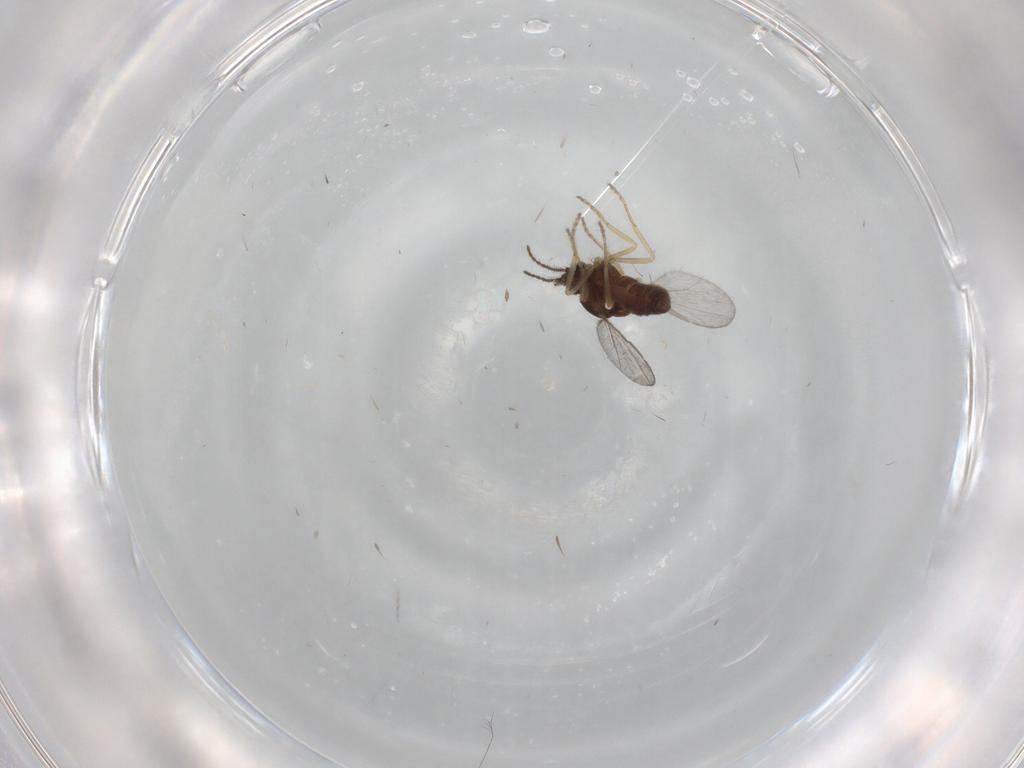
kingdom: Animalia
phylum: Arthropoda
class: Insecta
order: Diptera
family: Ceratopogonidae
